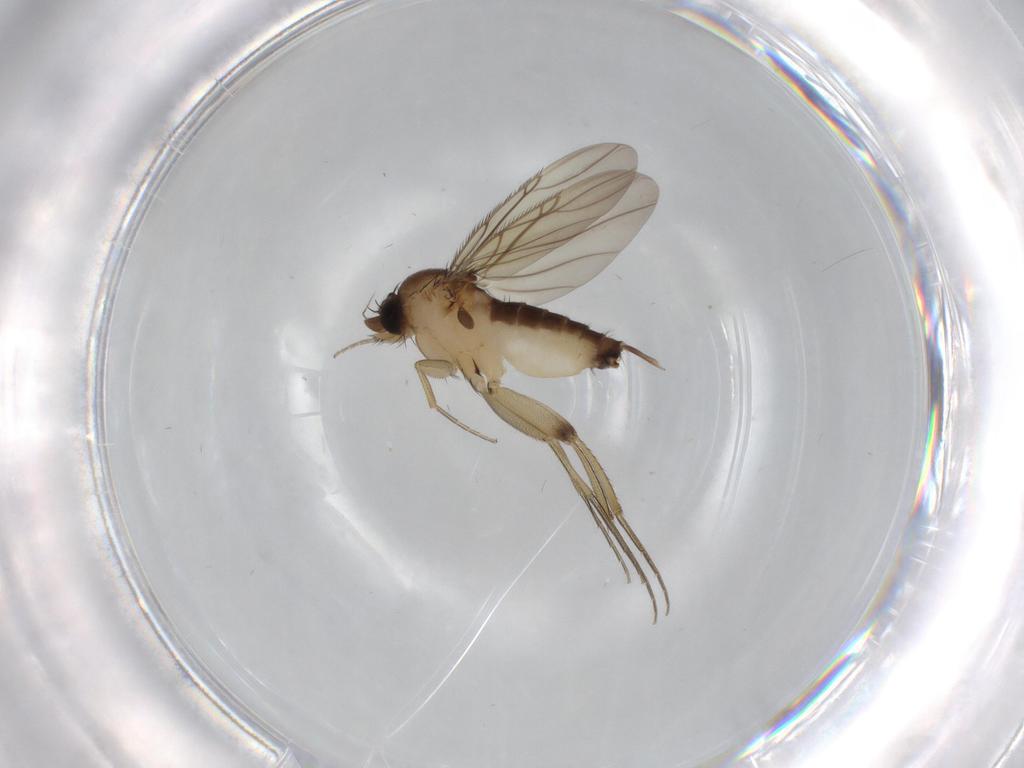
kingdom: Animalia
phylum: Arthropoda
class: Insecta
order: Diptera
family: Phoridae
